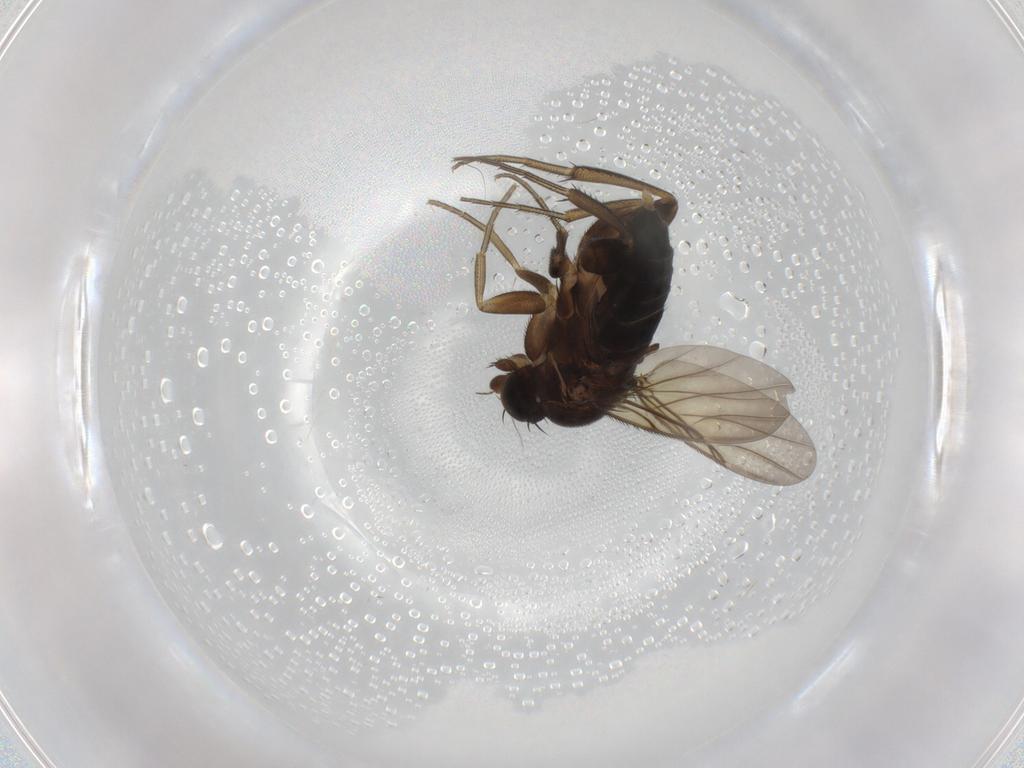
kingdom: Animalia
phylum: Arthropoda
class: Insecta
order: Diptera
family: Phoridae
